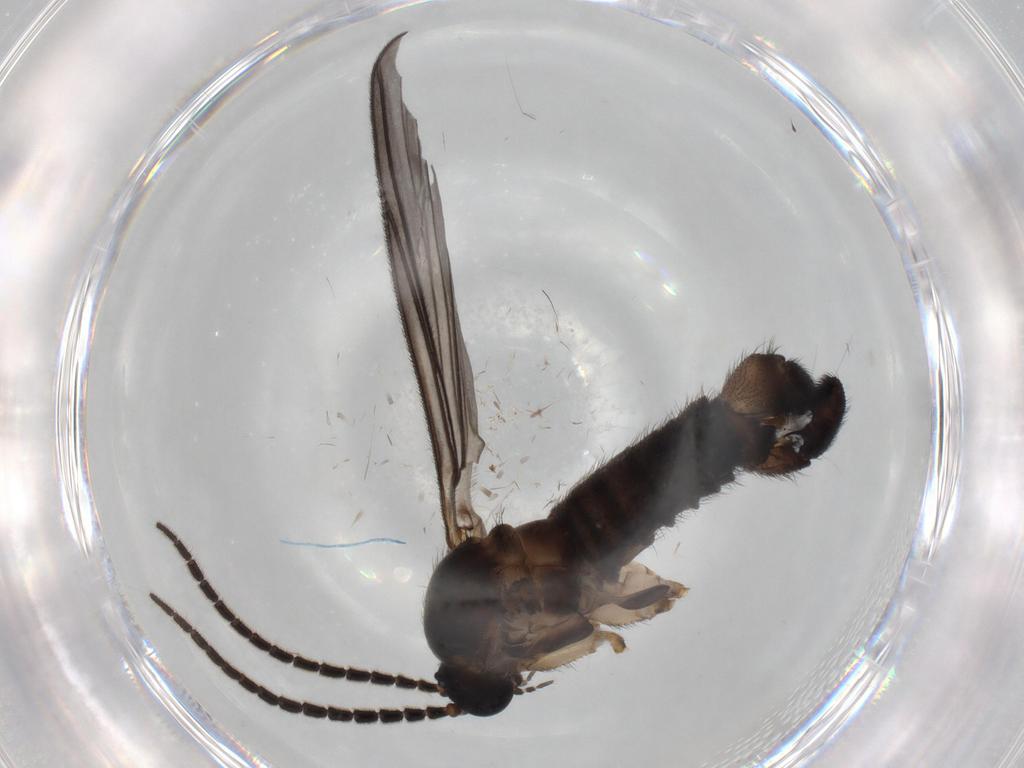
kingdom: Animalia
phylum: Arthropoda
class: Insecta
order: Diptera
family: Sciaridae
